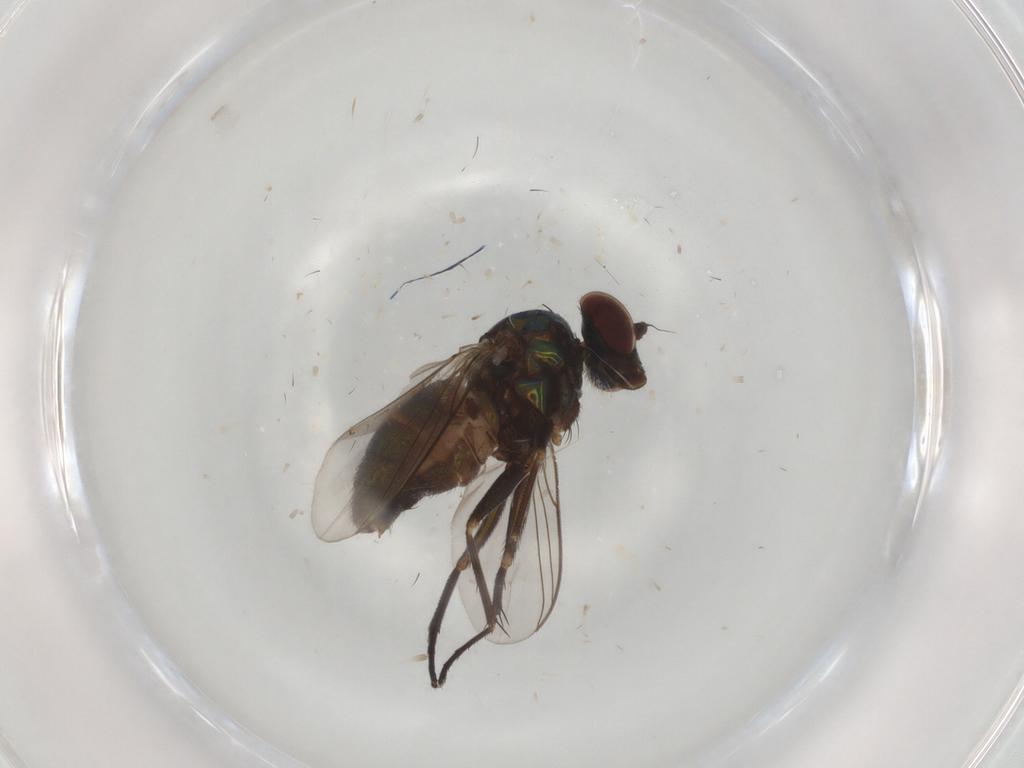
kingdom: Animalia
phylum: Arthropoda
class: Insecta
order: Diptera
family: Dolichopodidae
